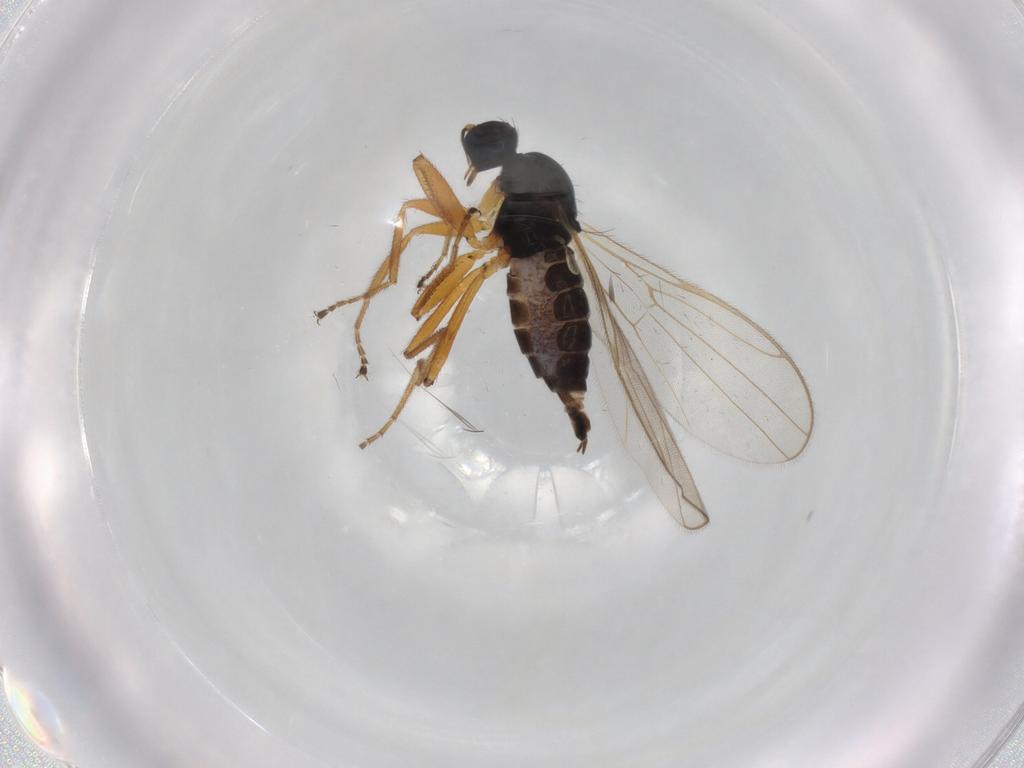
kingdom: Animalia
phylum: Arthropoda
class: Insecta
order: Diptera
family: Hybotidae
